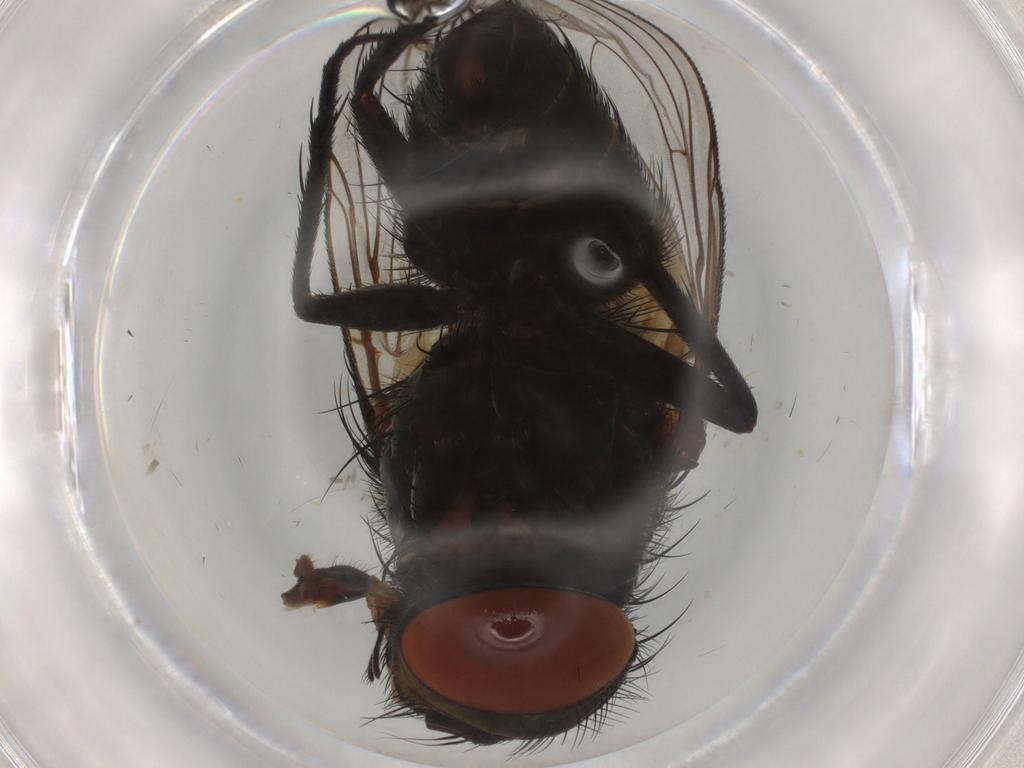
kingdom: Animalia
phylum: Arthropoda
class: Insecta
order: Diptera
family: Sarcophagidae
